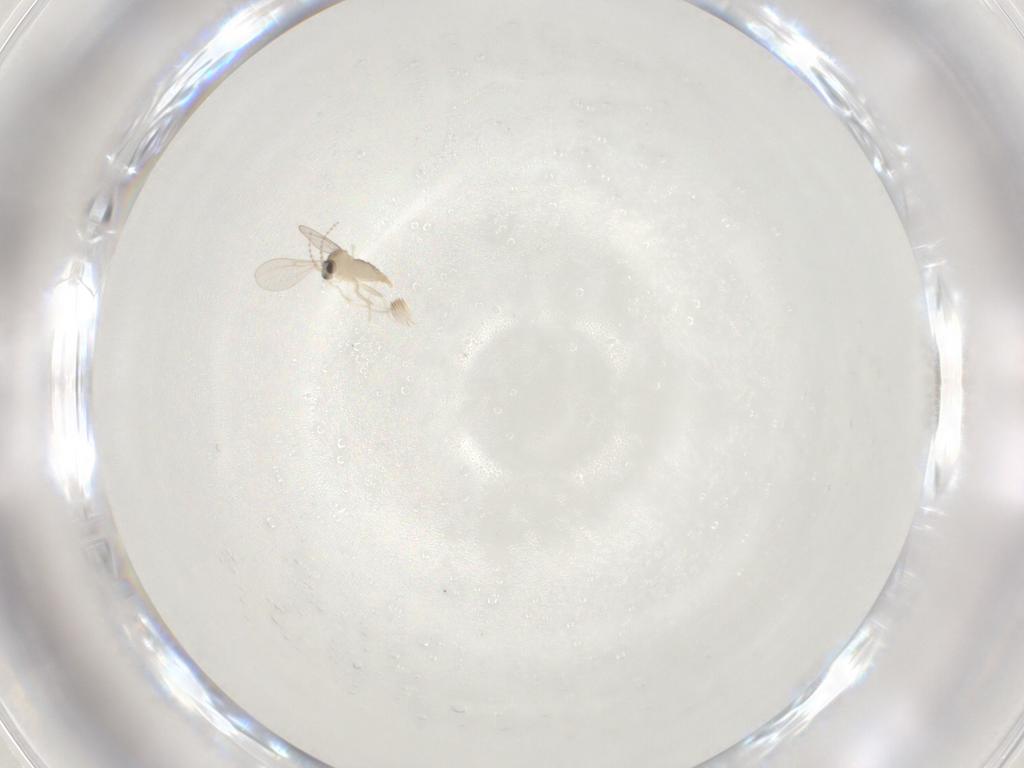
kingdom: Animalia
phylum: Arthropoda
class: Insecta
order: Diptera
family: Cecidomyiidae
